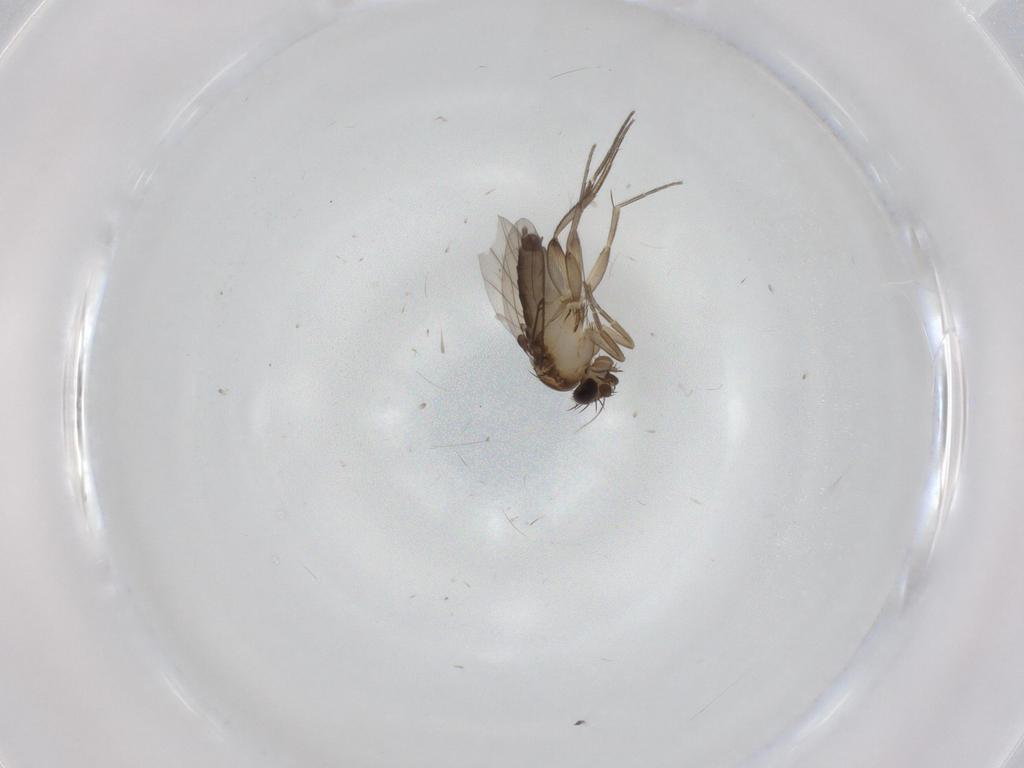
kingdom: Animalia
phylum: Arthropoda
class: Insecta
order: Diptera
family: Phoridae
